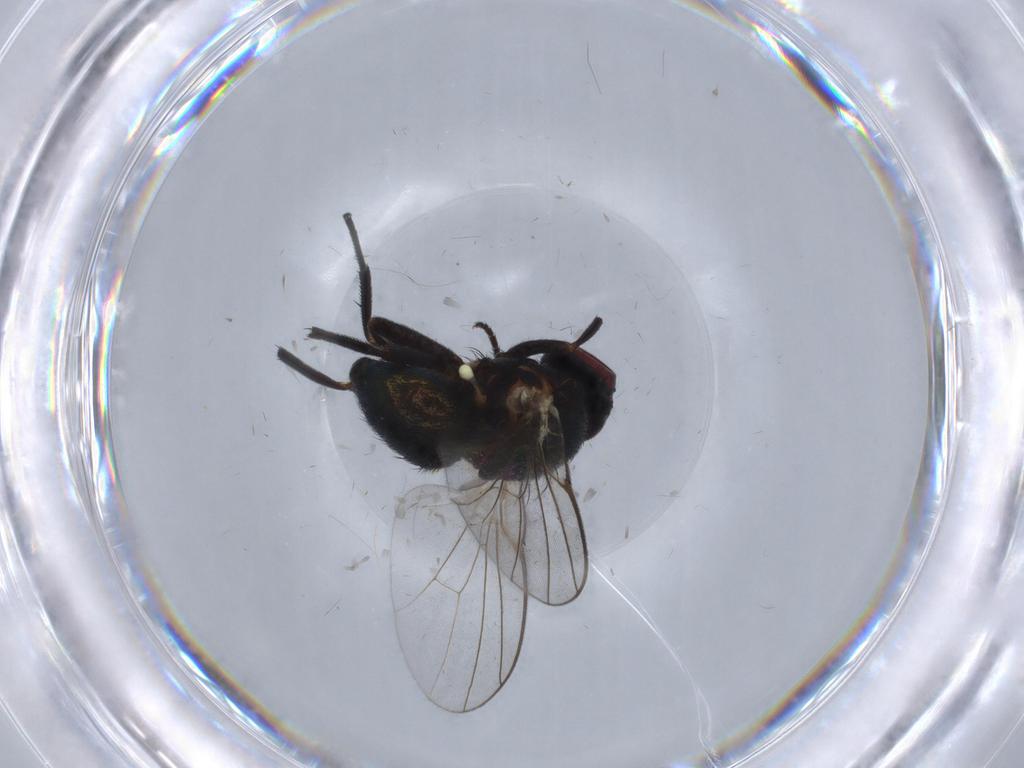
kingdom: Animalia
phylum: Arthropoda
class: Insecta
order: Diptera
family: Agromyzidae
